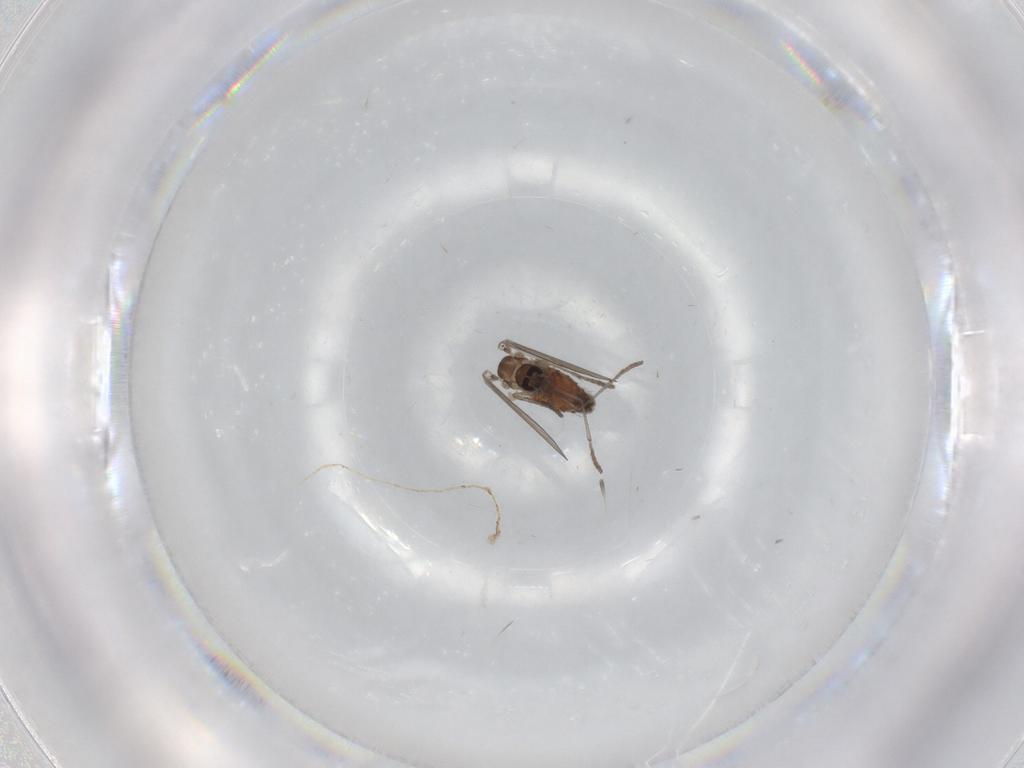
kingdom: Animalia
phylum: Arthropoda
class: Insecta
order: Diptera
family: Psychodidae
